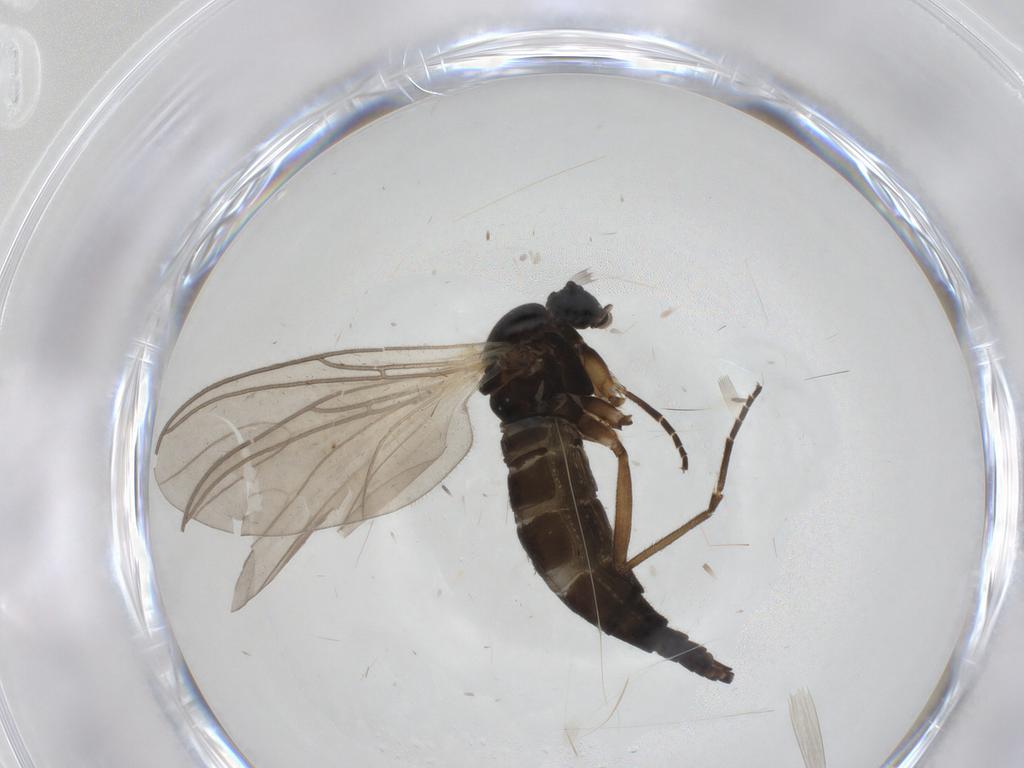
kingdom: Animalia
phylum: Arthropoda
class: Insecta
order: Diptera
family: Sciaridae
